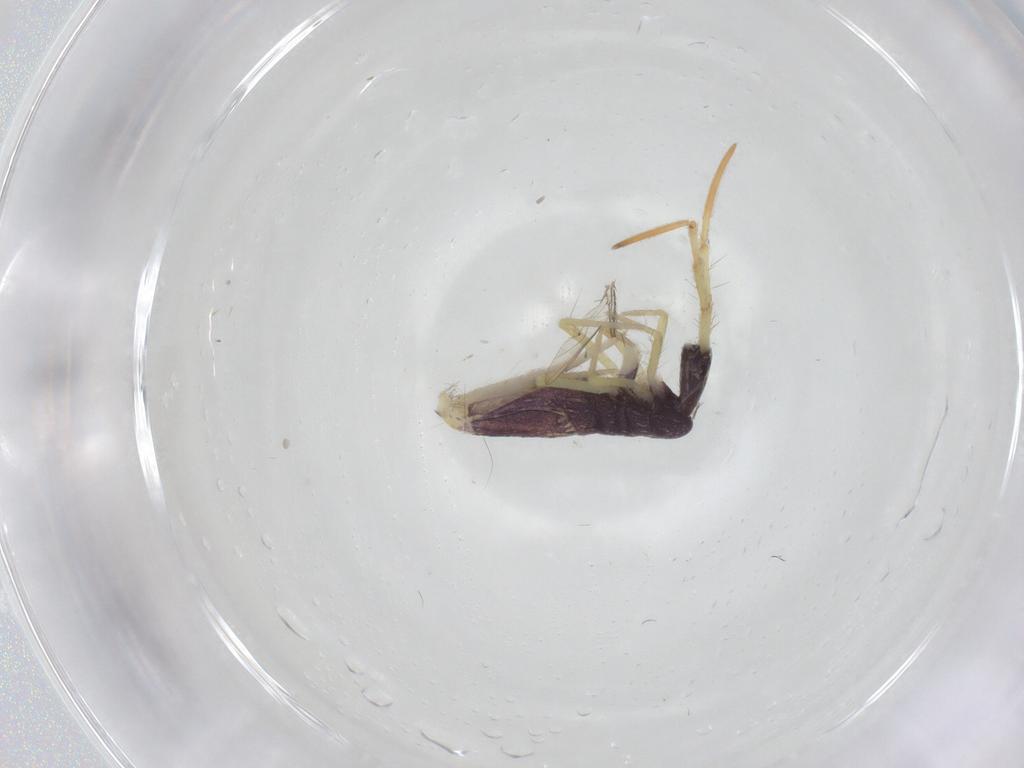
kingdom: Animalia
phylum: Arthropoda
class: Collembola
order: Entomobryomorpha
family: Entomobryidae
